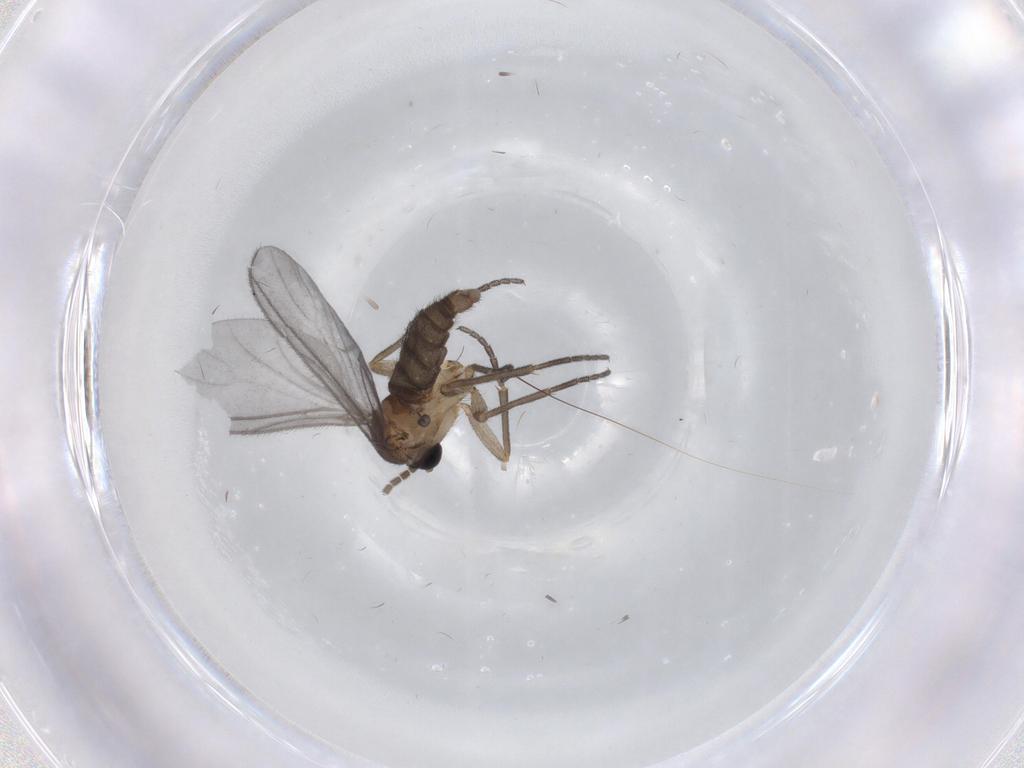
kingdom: Animalia
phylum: Arthropoda
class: Insecta
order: Diptera
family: Sciaridae
